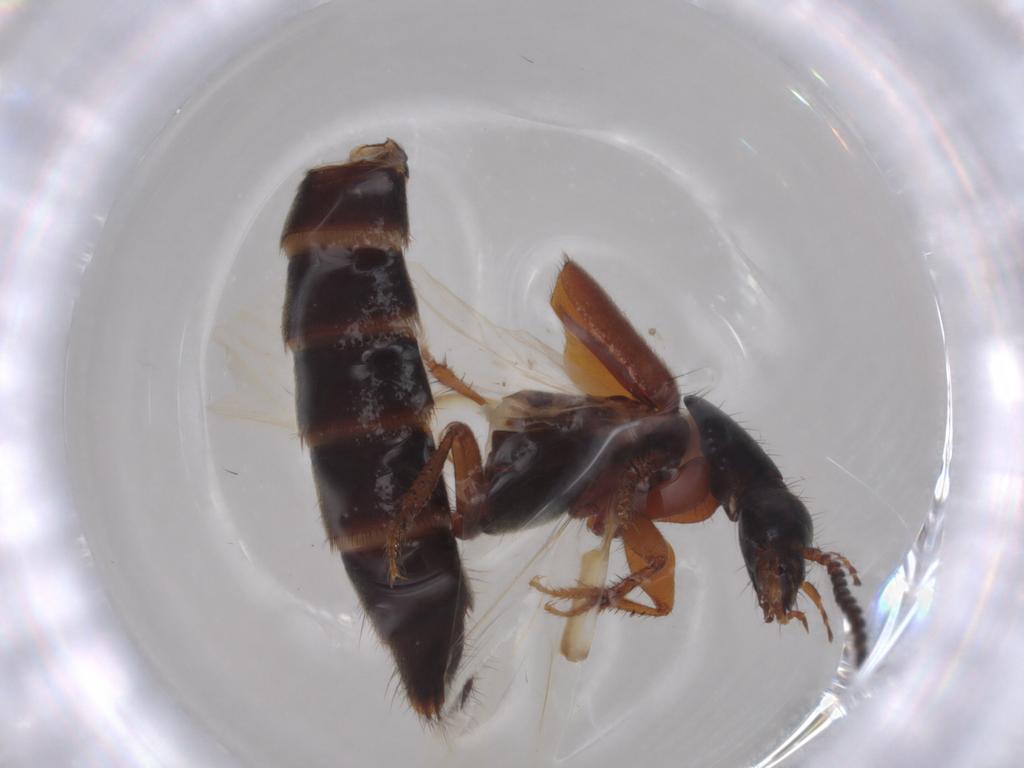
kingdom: Animalia
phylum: Arthropoda
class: Insecta
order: Coleoptera
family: Staphylinidae
